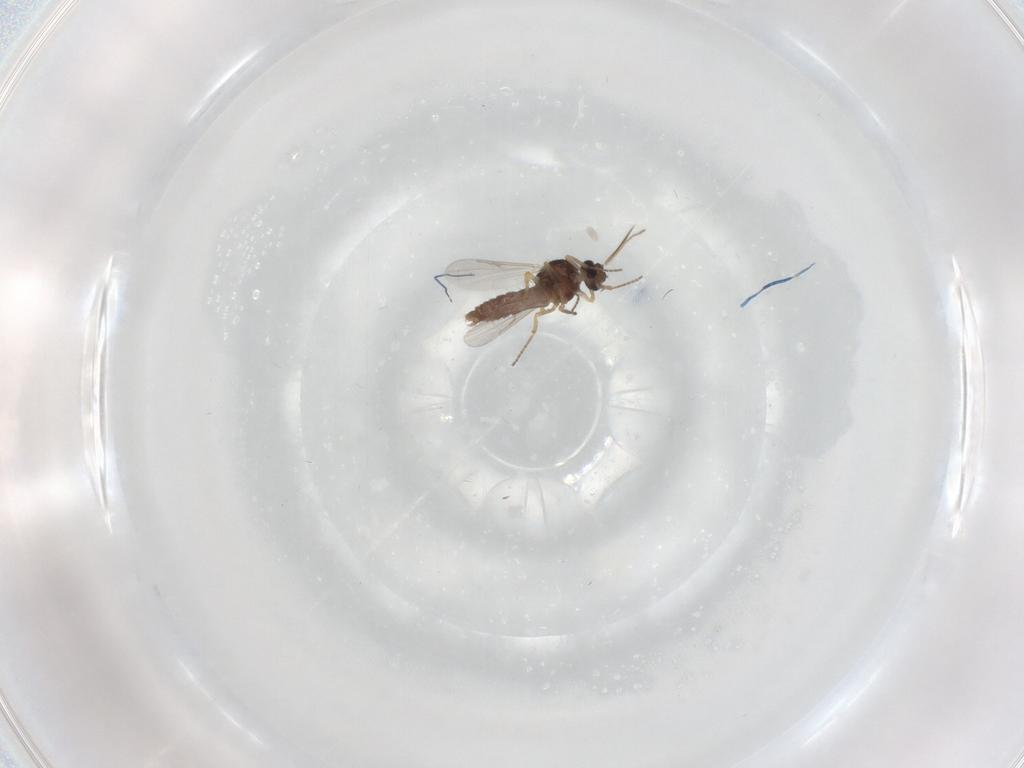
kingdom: Animalia
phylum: Arthropoda
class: Insecta
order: Diptera
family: Ceratopogonidae
